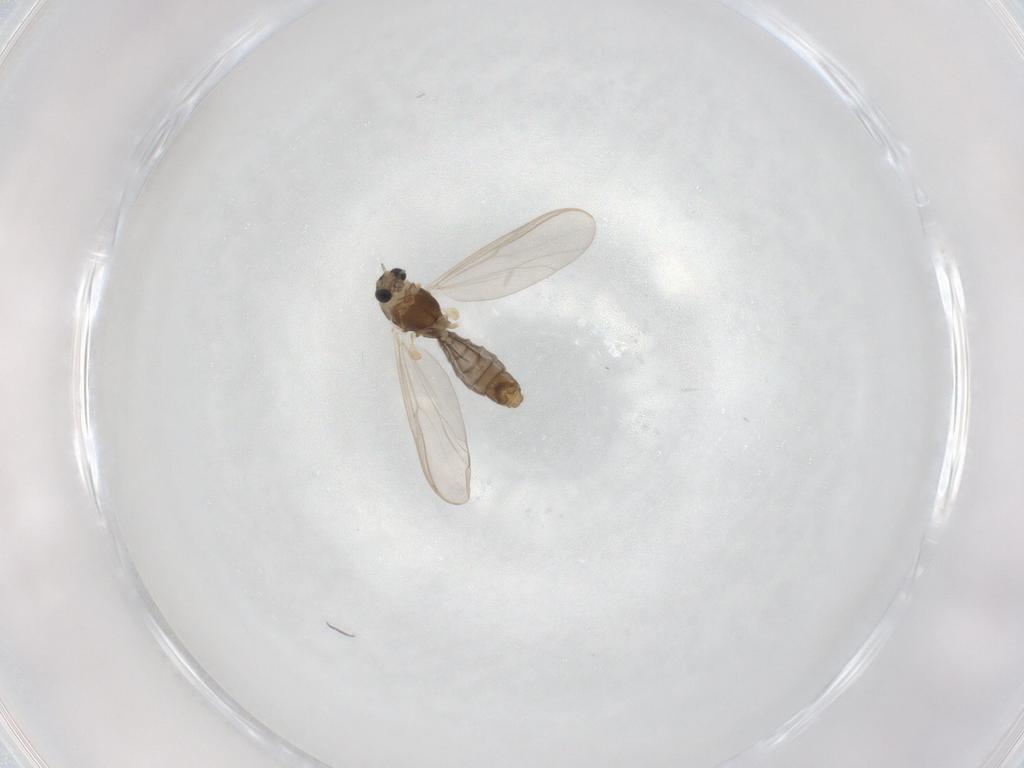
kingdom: Animalia
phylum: Arthropoda
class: Insecta
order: Diptera
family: Chironomidae
